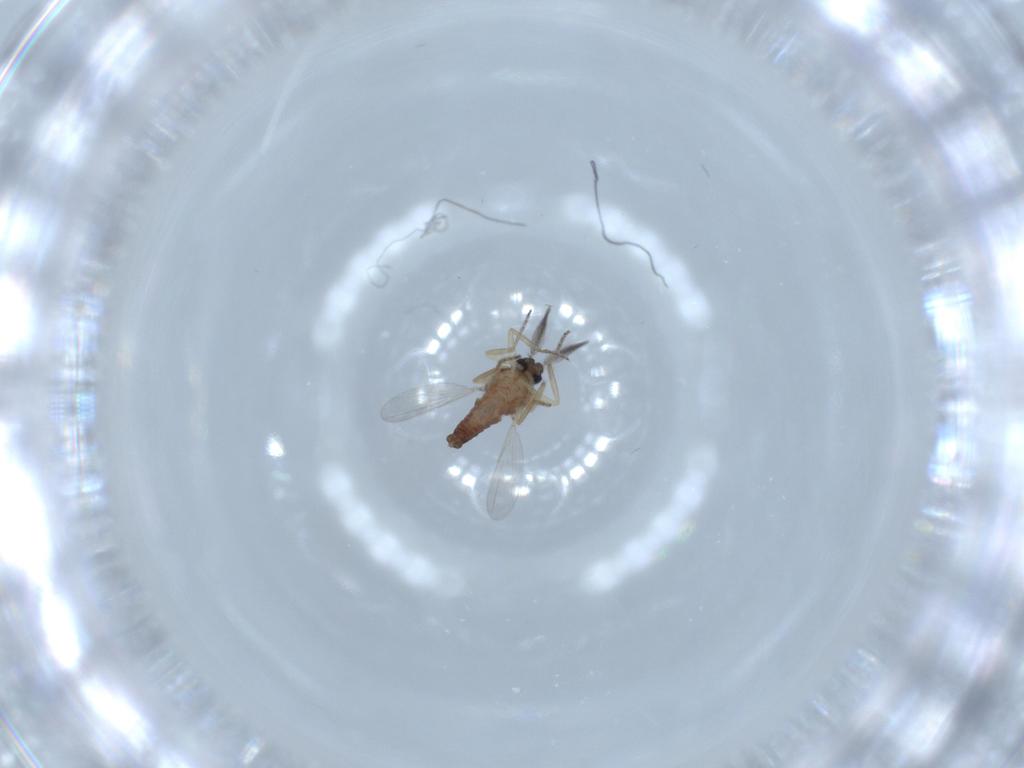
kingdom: Animalia
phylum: Arthropoda
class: Insecta
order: Diptera
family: Ceratopogonidae
